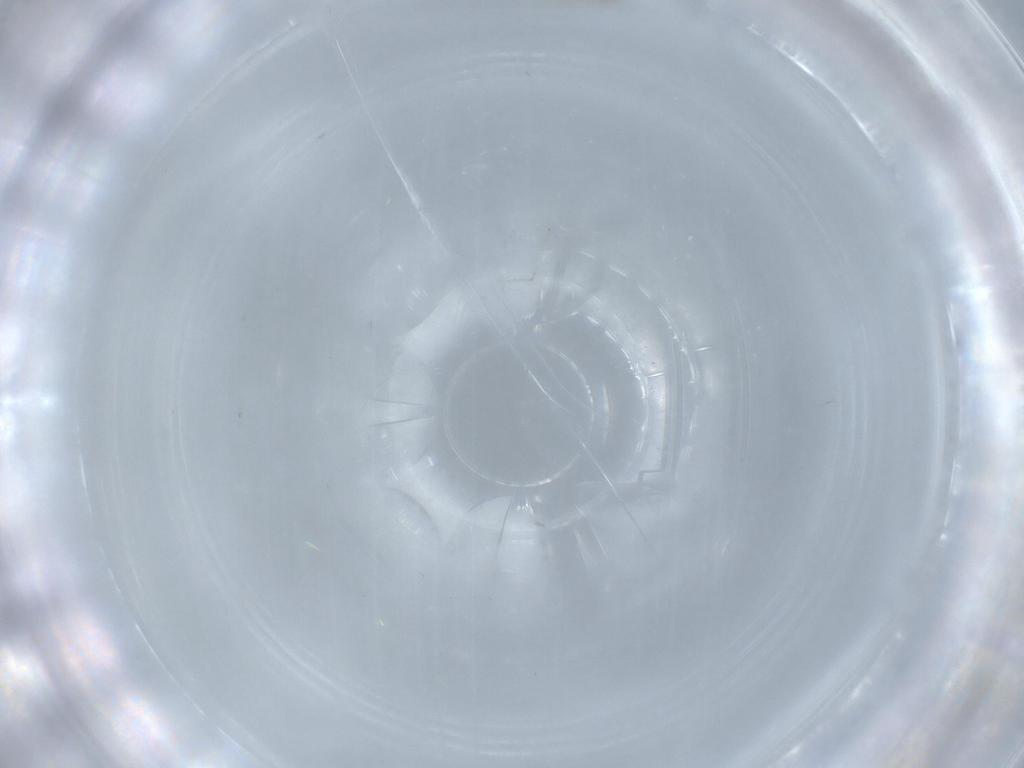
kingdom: Animalia
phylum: Arthropoda
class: Insecta
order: Diptera
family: Cecidomyiidae
